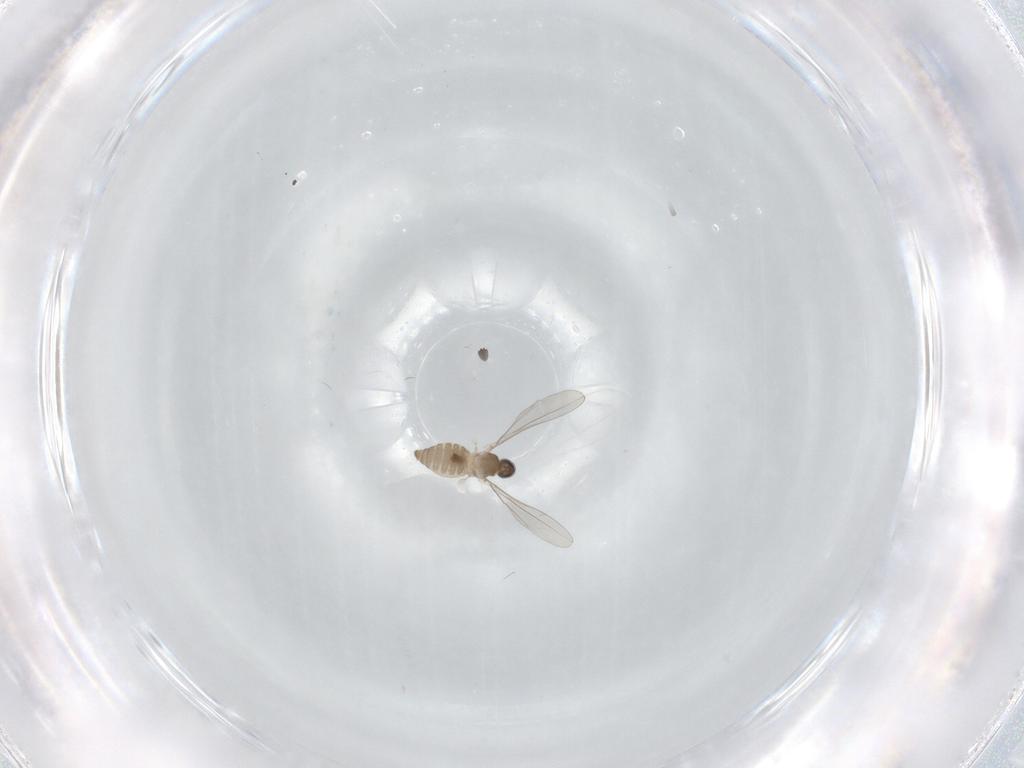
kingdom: Animalia
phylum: Arthropoda
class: Insecta
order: Diptera
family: Cecidomyiidae
